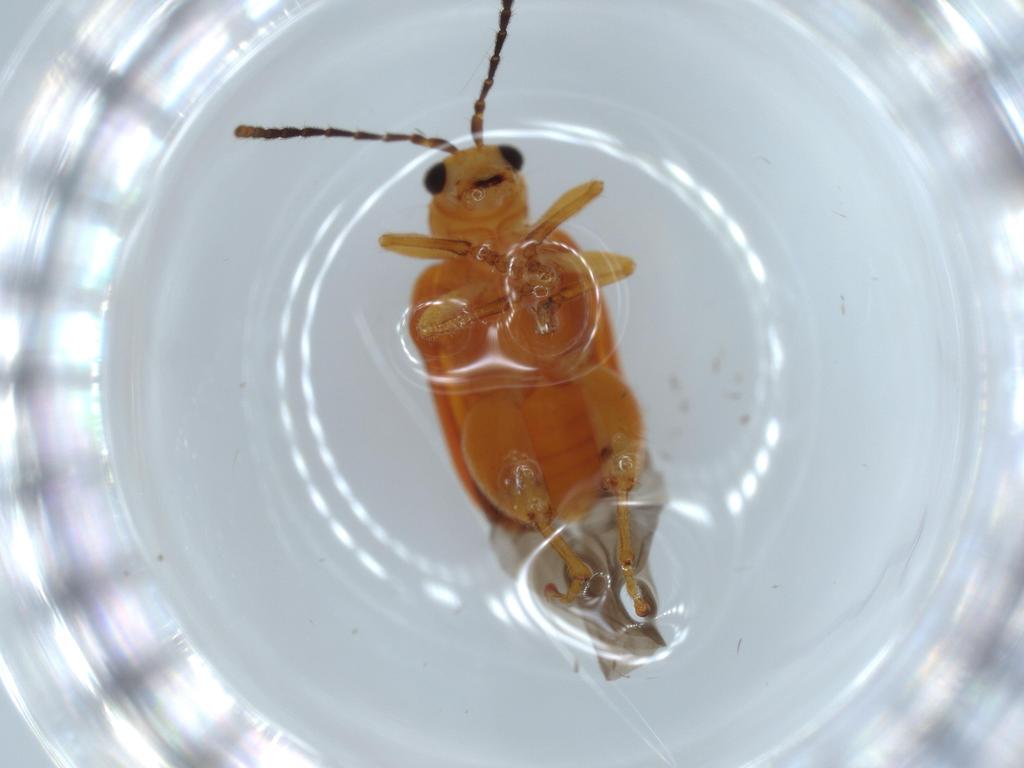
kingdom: Animalia
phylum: Arthropoda
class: Insecta
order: Coleoptera
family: Chrysomelidae
